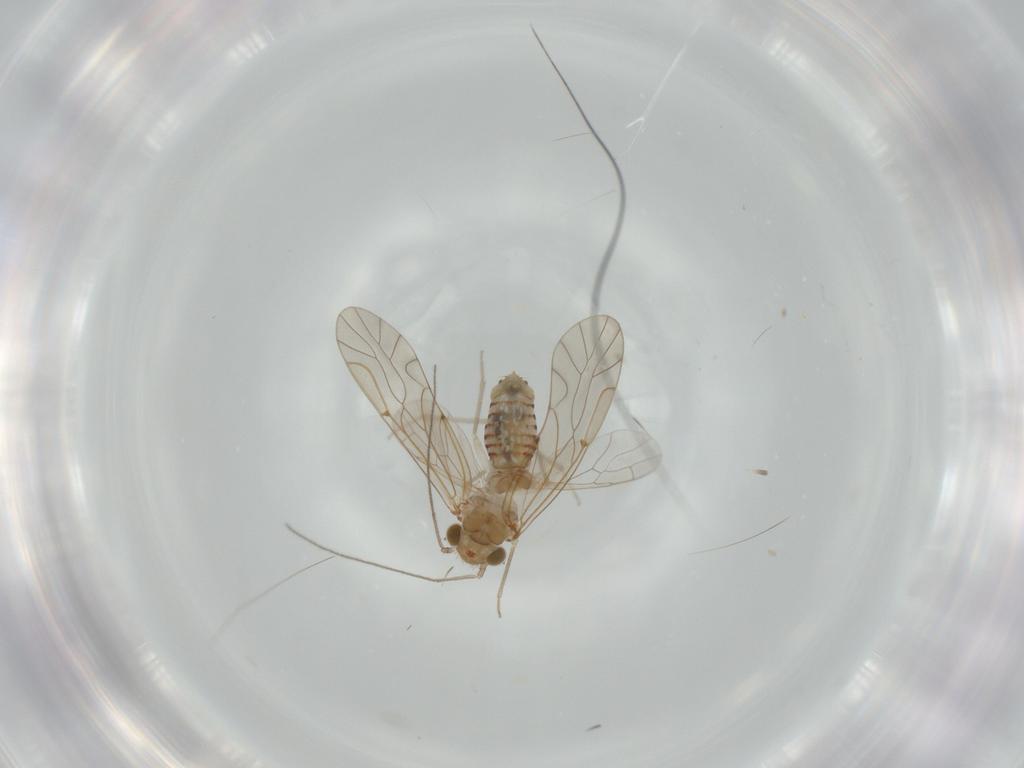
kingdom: Animalia
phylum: Arthropoda
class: Insecta
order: Psocodea
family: Lachesillidae
